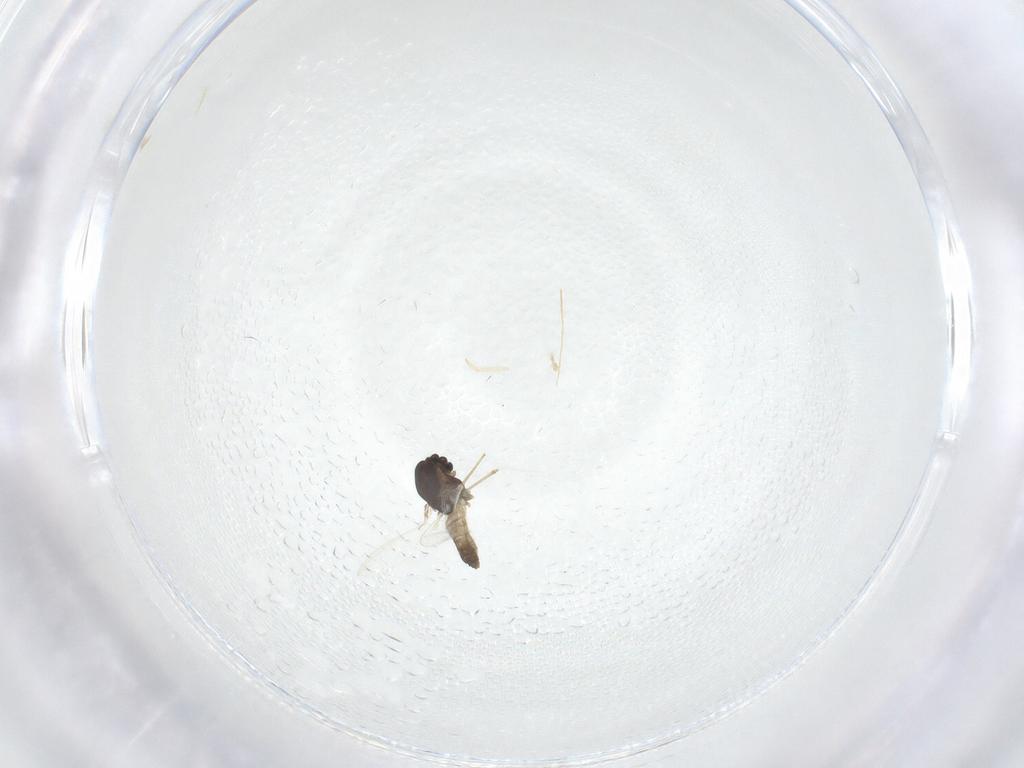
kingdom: Animalia
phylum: Arthropoda
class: Insecta
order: Diptera
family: Chironomidae
